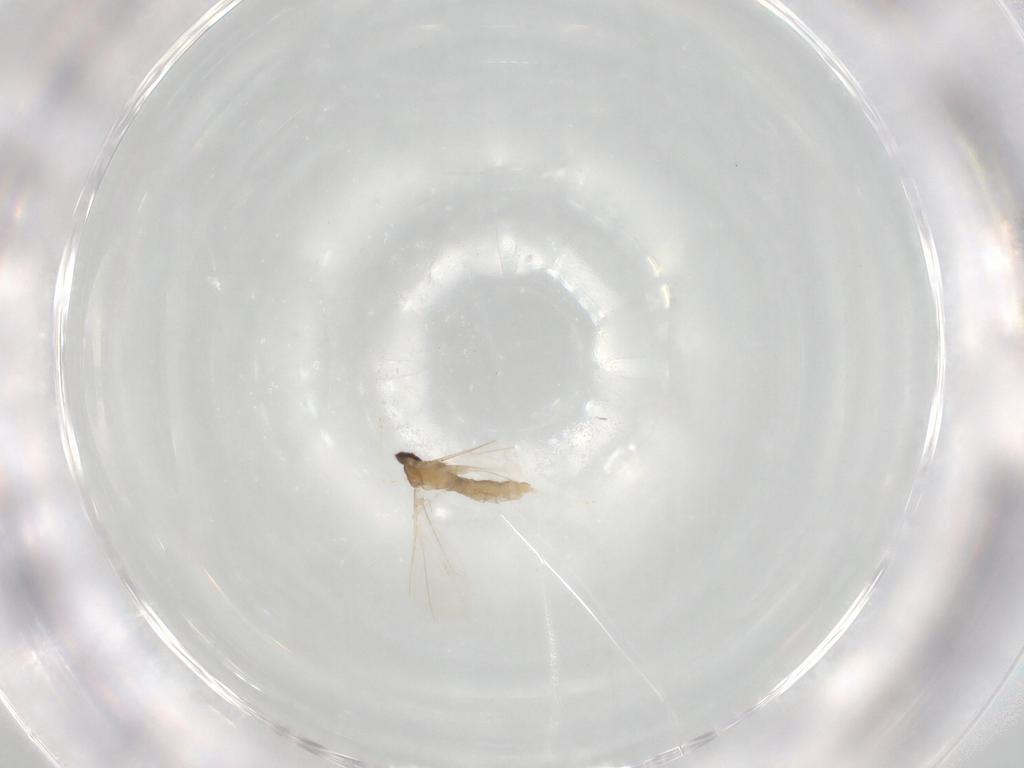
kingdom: Animalia
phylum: Arthropoda
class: Insecta
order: Diptera
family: Cecidomyiidae
